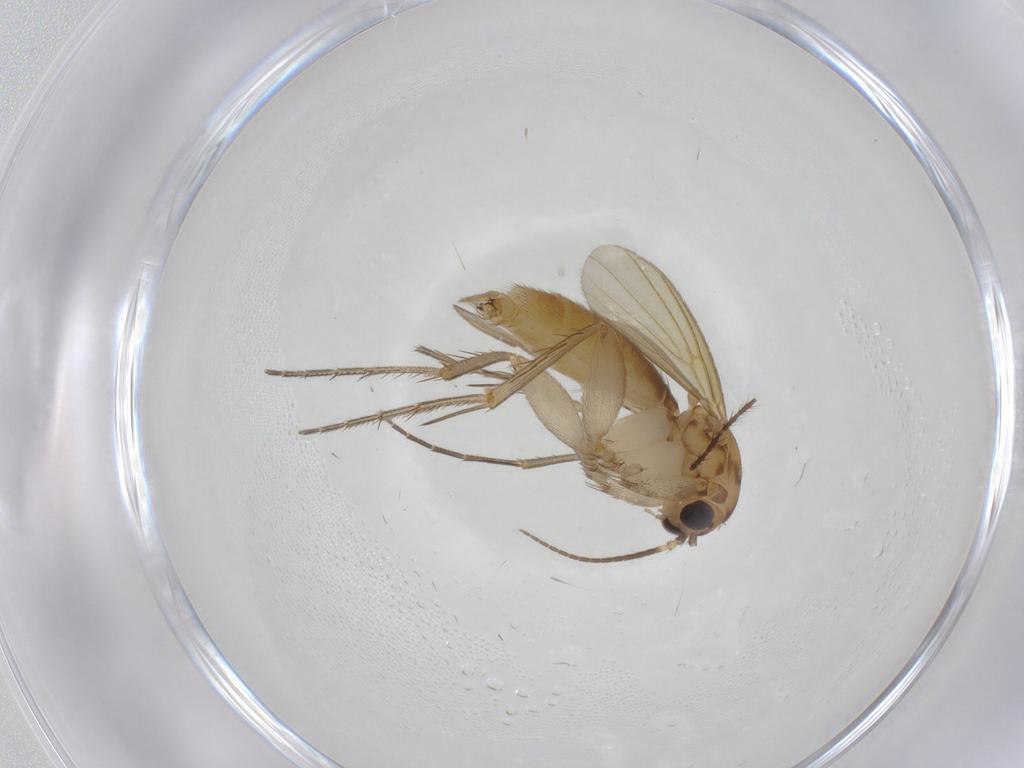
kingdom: Animalia
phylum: Arthropoda
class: Insecta
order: Diptera
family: Mycetophilidae
